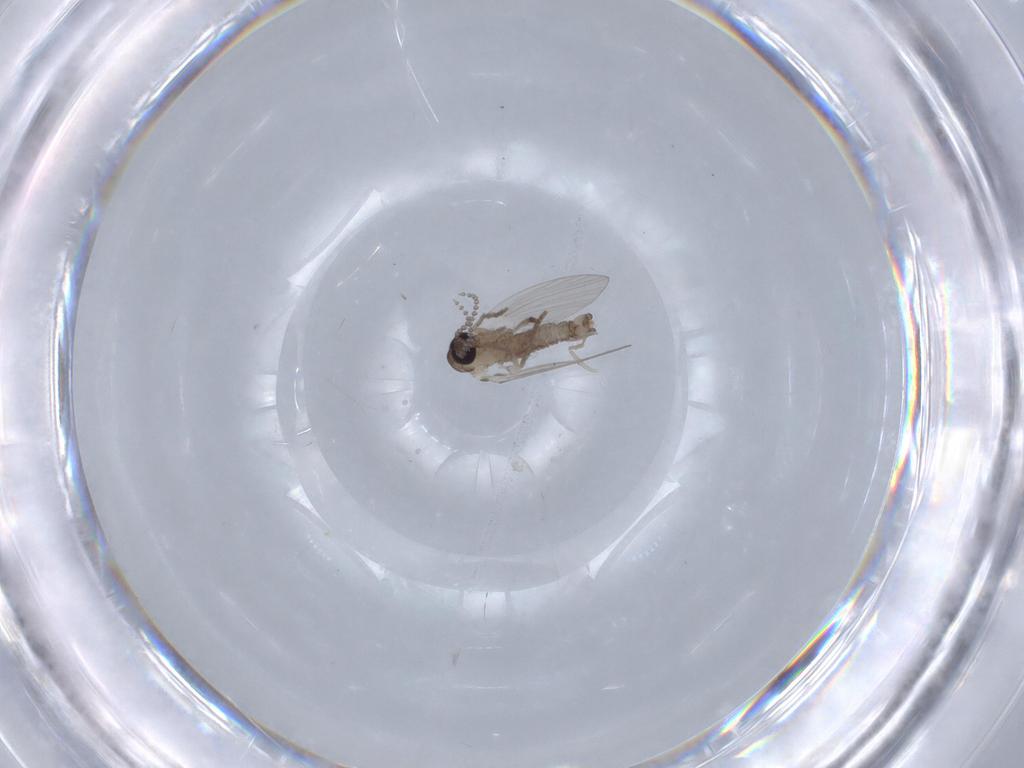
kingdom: Animalia
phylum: Arthropoda
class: Insecta
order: Diptera
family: Psychodidae
